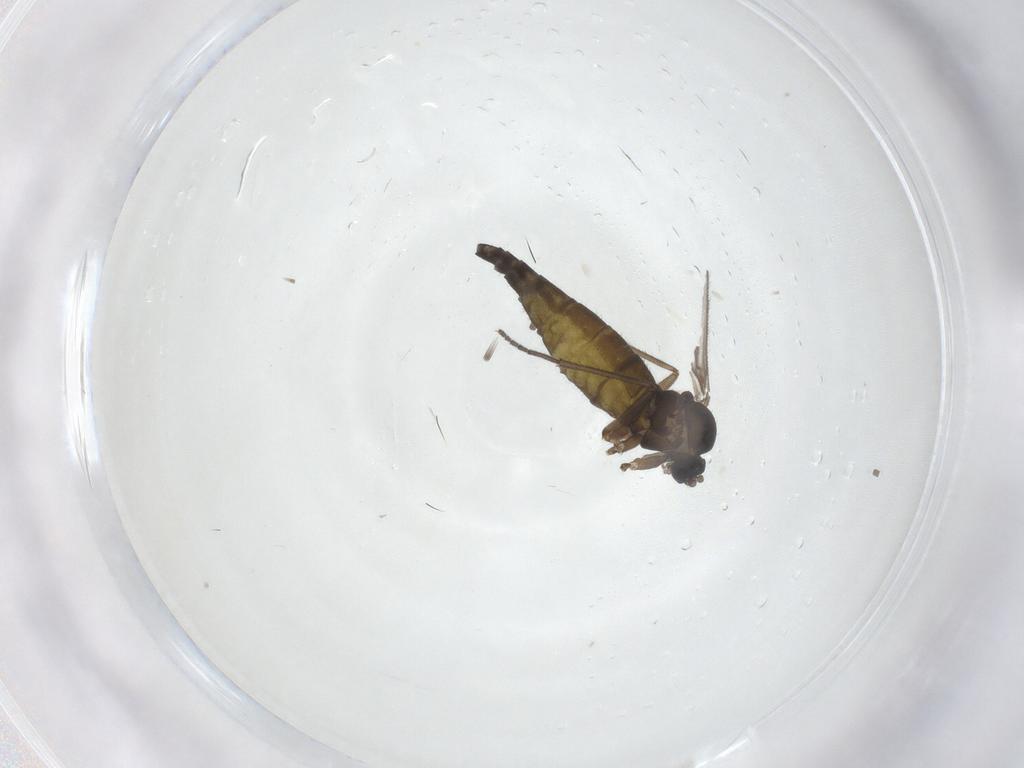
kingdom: Animalia
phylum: Arthropoda
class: Insecta
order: Diptera
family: Sciaridae
